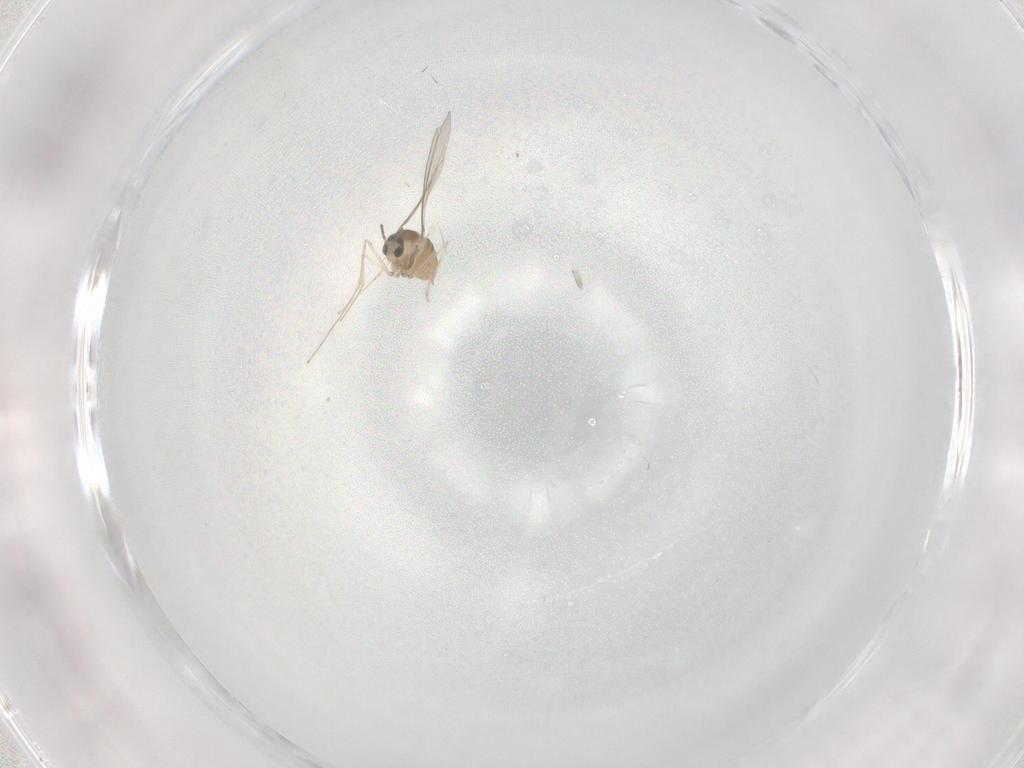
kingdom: Animalia
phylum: Arthropoda
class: Insecta
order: Diptera
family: Cecidomyiidae
